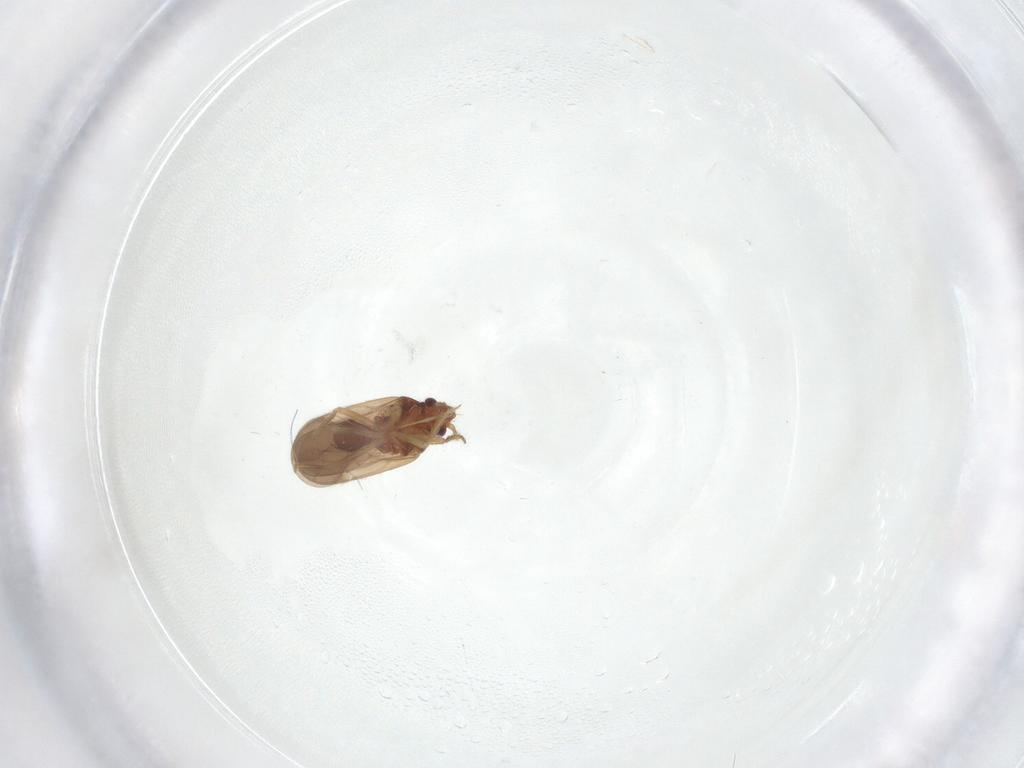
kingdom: Animalia
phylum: Arthropoda
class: Insecta
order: Hemiptera
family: Ceratocombidae
